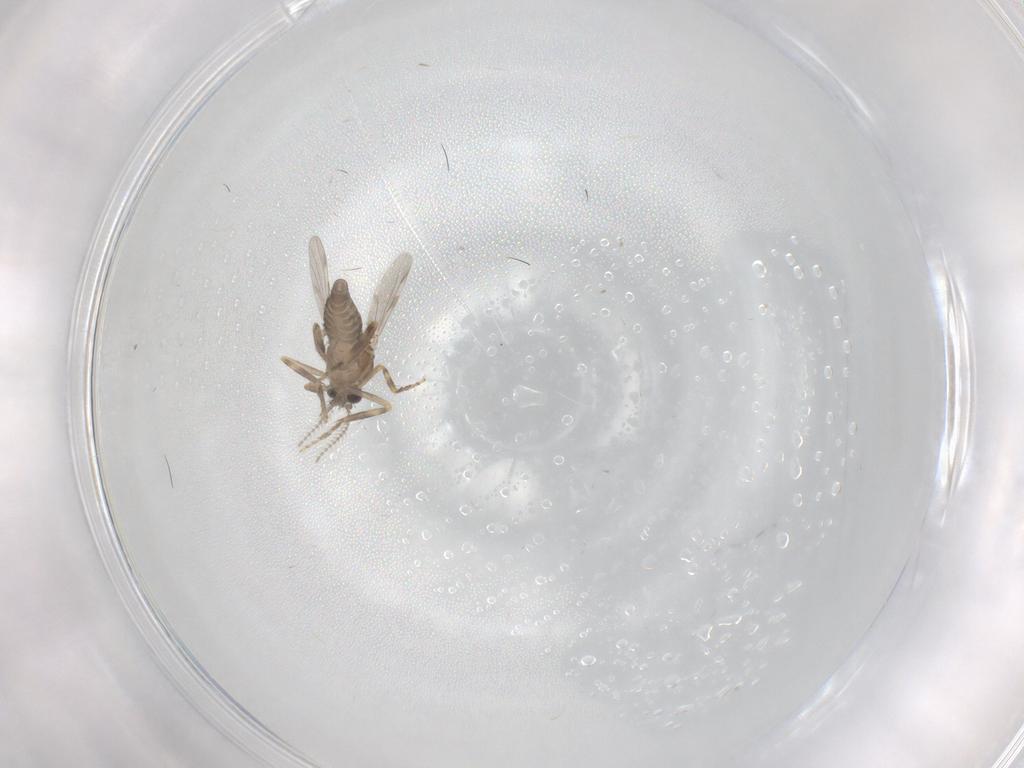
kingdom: Animalia
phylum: Arthropoda
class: Insecta
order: Diptera
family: Ceratopogonidae
